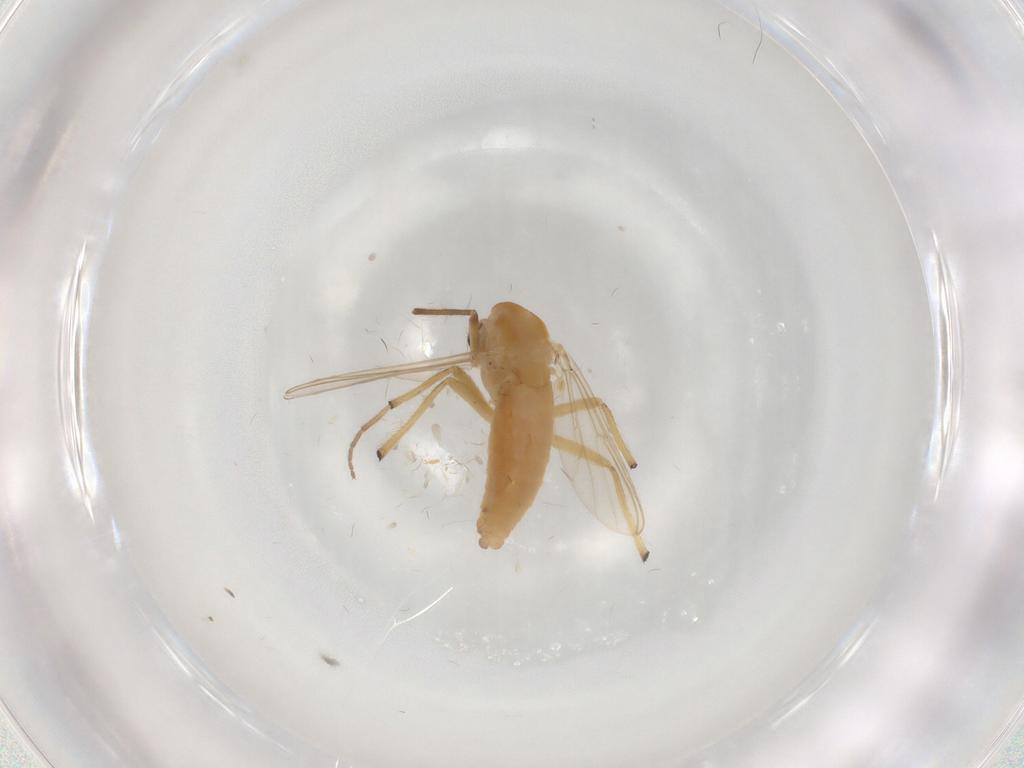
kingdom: Animalia
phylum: Arthropoda
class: Insecta
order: Diptera
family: Chironomidae
